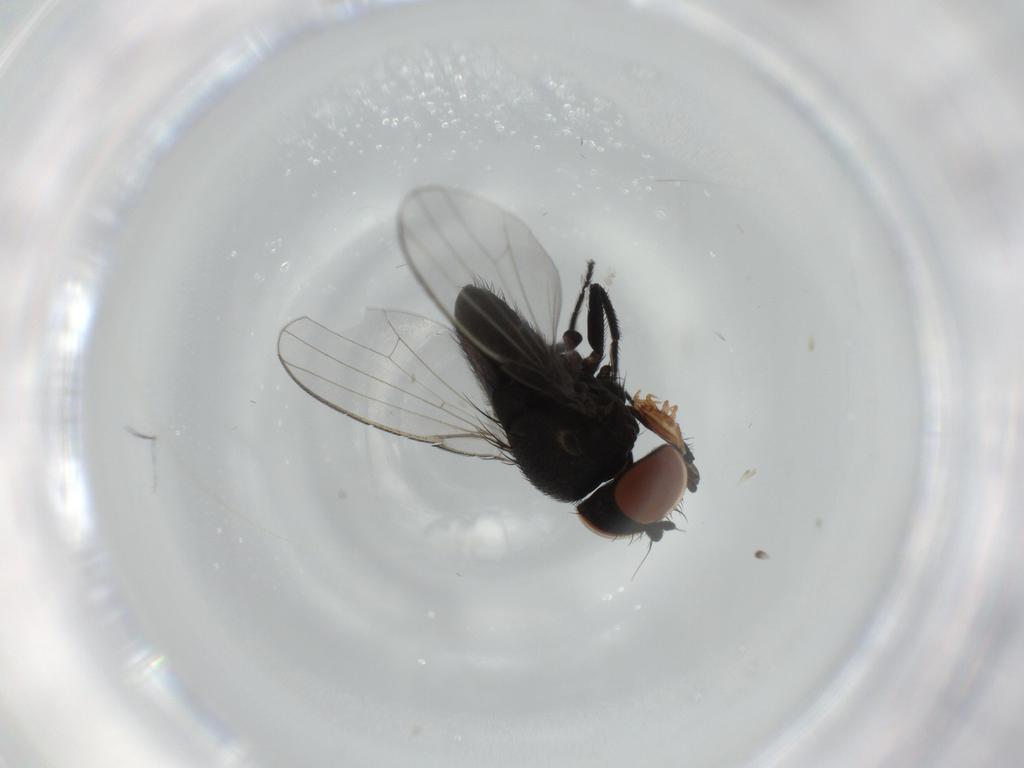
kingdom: Animalia
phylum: Arthropoda
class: Insecta
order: Diptera
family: Milichiidae
